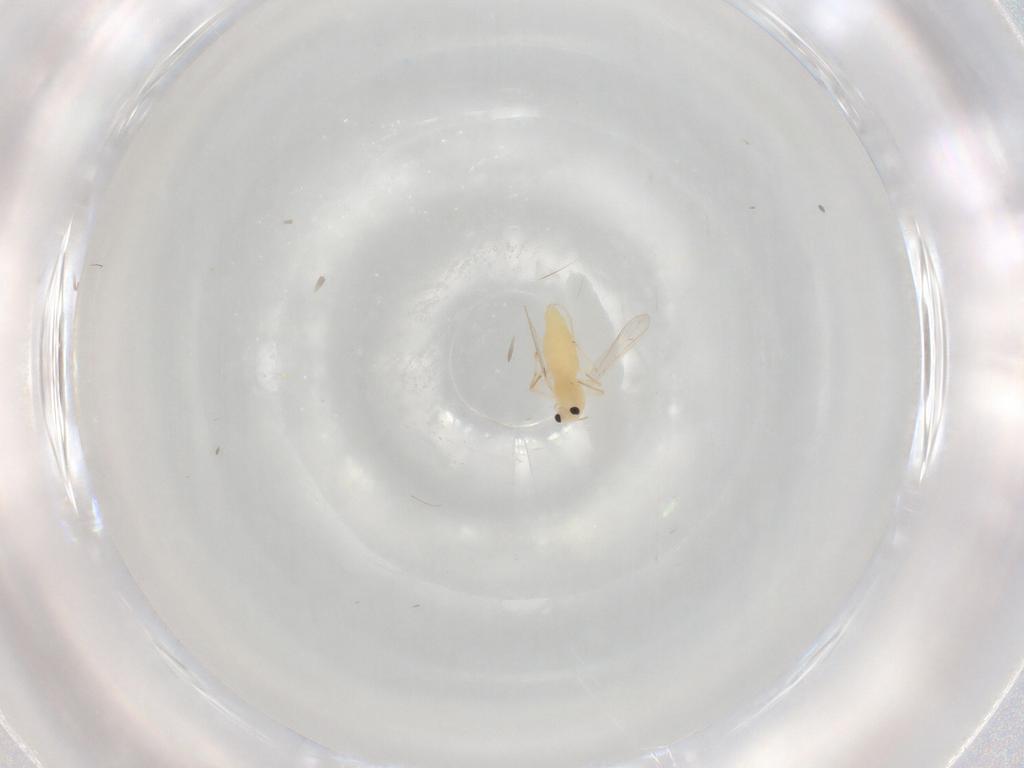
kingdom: Animalia
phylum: Arthropoda
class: Insecta
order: Diptera
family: Chironomidae
